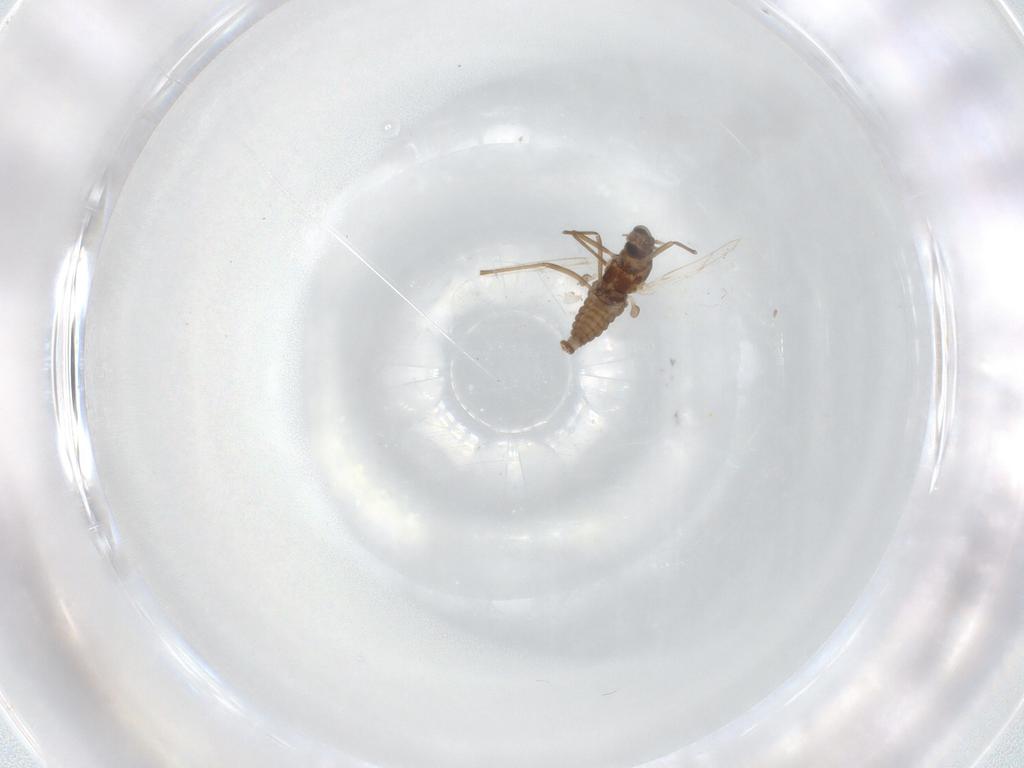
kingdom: Animalia
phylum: Arthropoda
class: Insecta
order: Diptera
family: Cecidomyiidae
